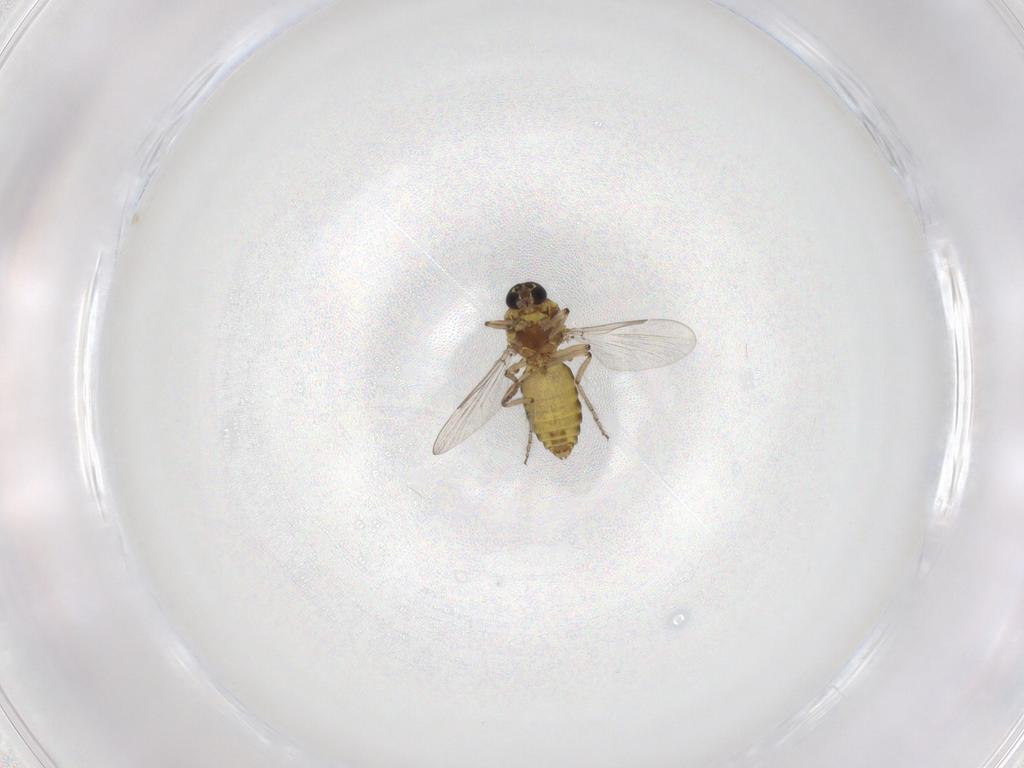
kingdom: Animalia
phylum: Arthropoda
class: Insecta
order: Diptera
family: Ceratopogonidae
